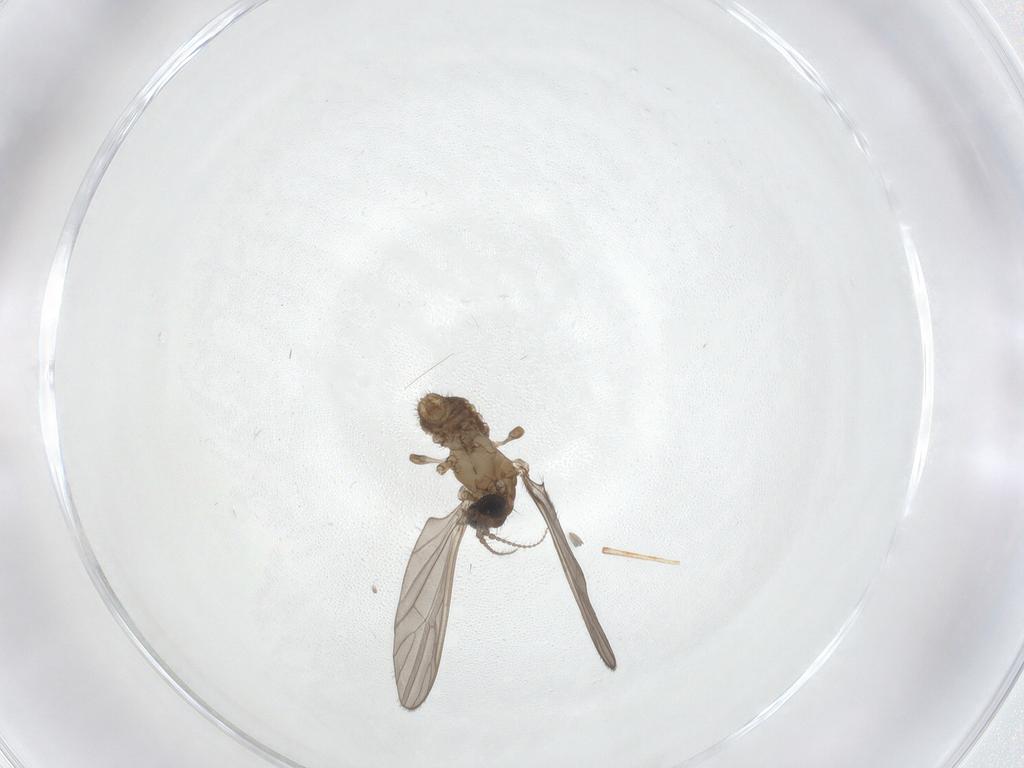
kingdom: Animalia
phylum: Arthropoda
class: Insecta
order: Diptera
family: Limoniidae
